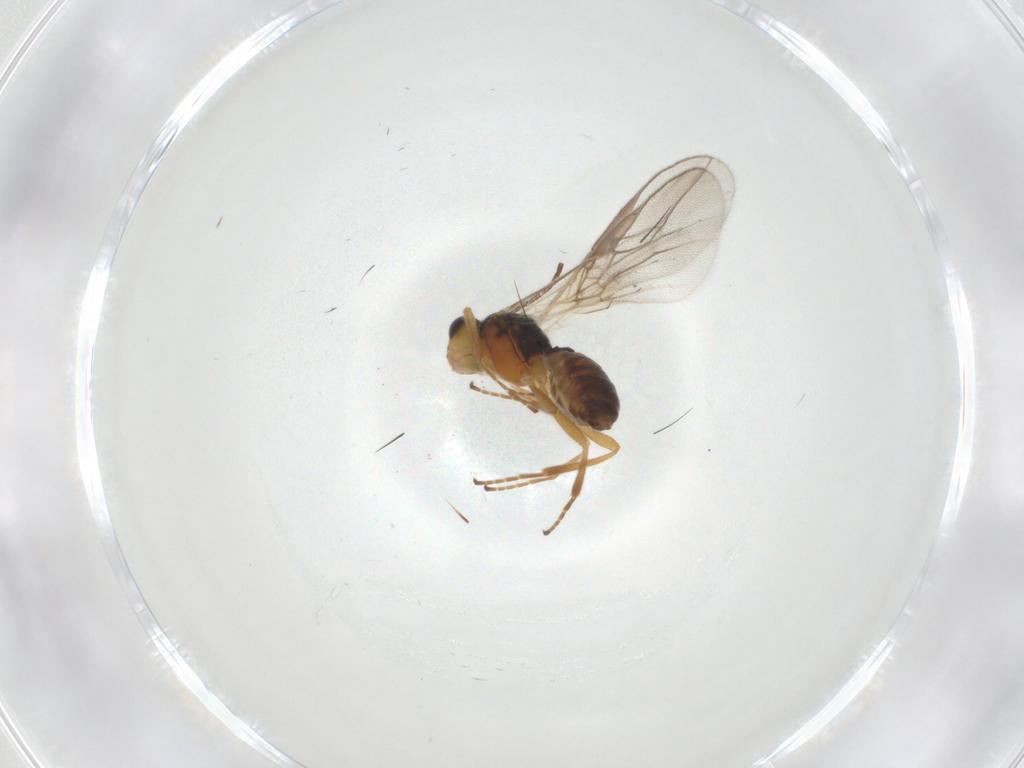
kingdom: Animalia
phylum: Arthropoda
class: Insecta
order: Hymenoptera
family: Braconidae
